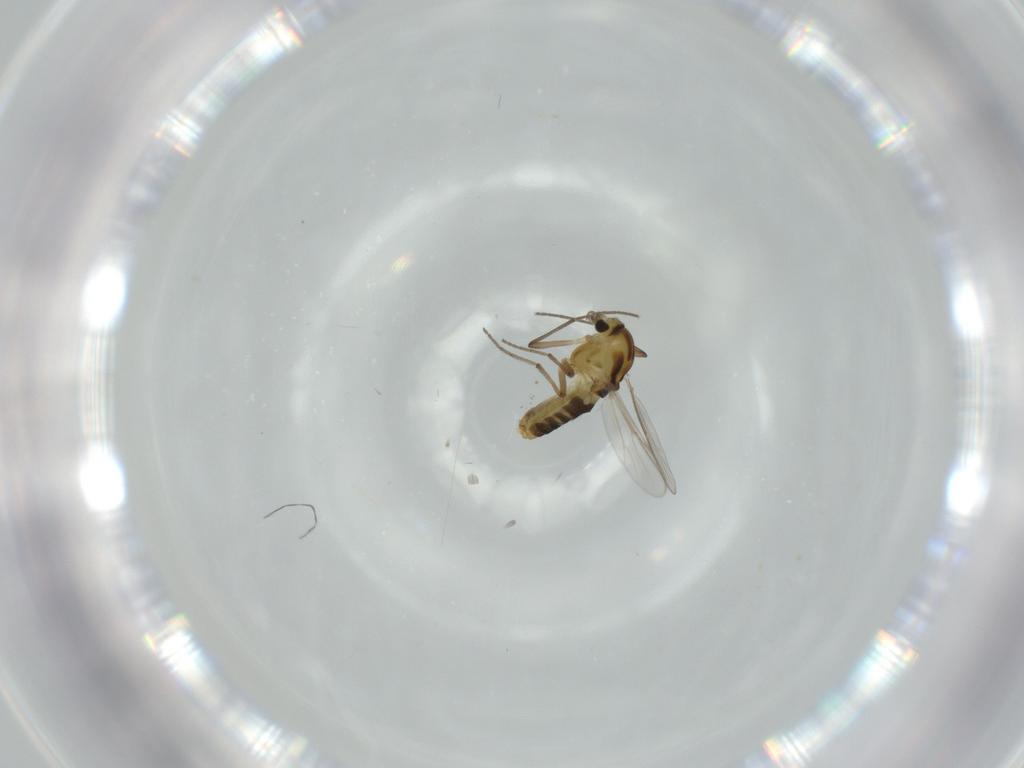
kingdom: Animalia
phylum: Arthropoda
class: Insecta
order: Diptera
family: Chironomidae
